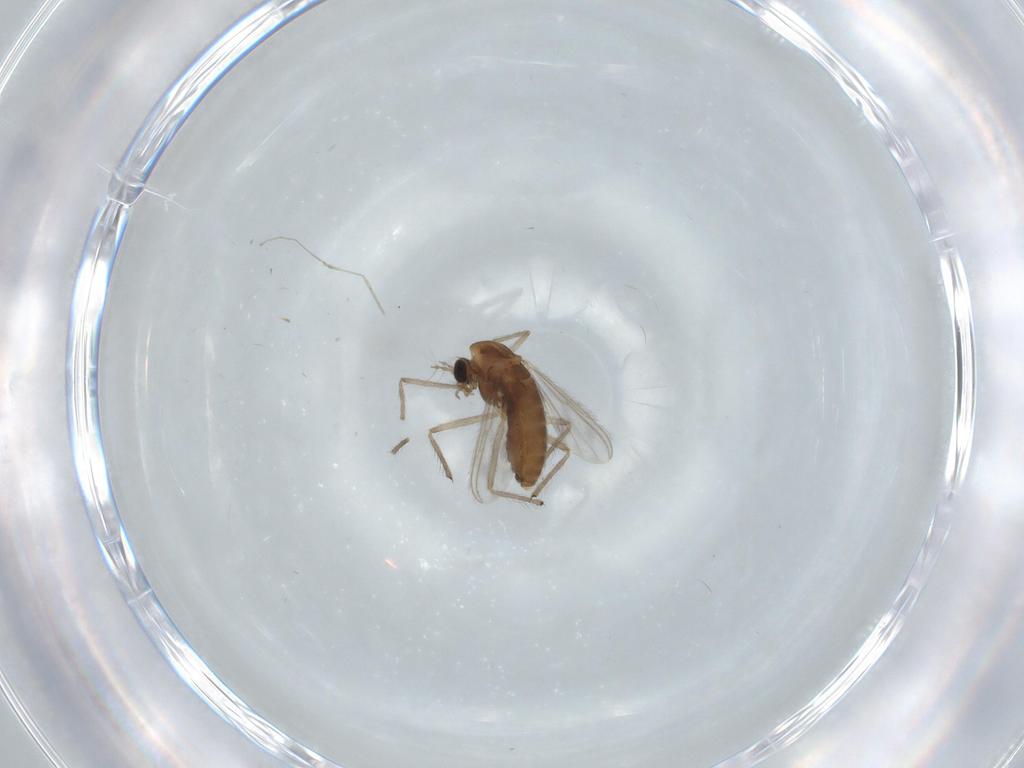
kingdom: Animalia
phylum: Arthropoda
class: Insecta
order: Diptera
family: Chironomidae
